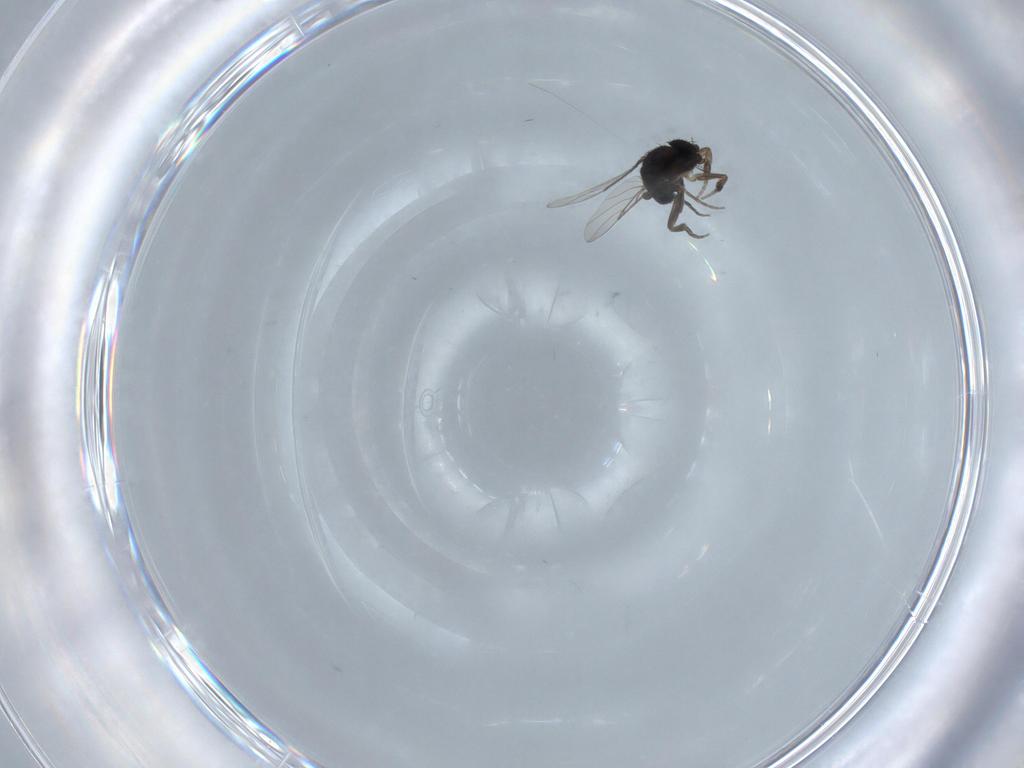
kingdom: Animalia
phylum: Arthropoda
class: Insecta
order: Diptera
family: Phoridae
